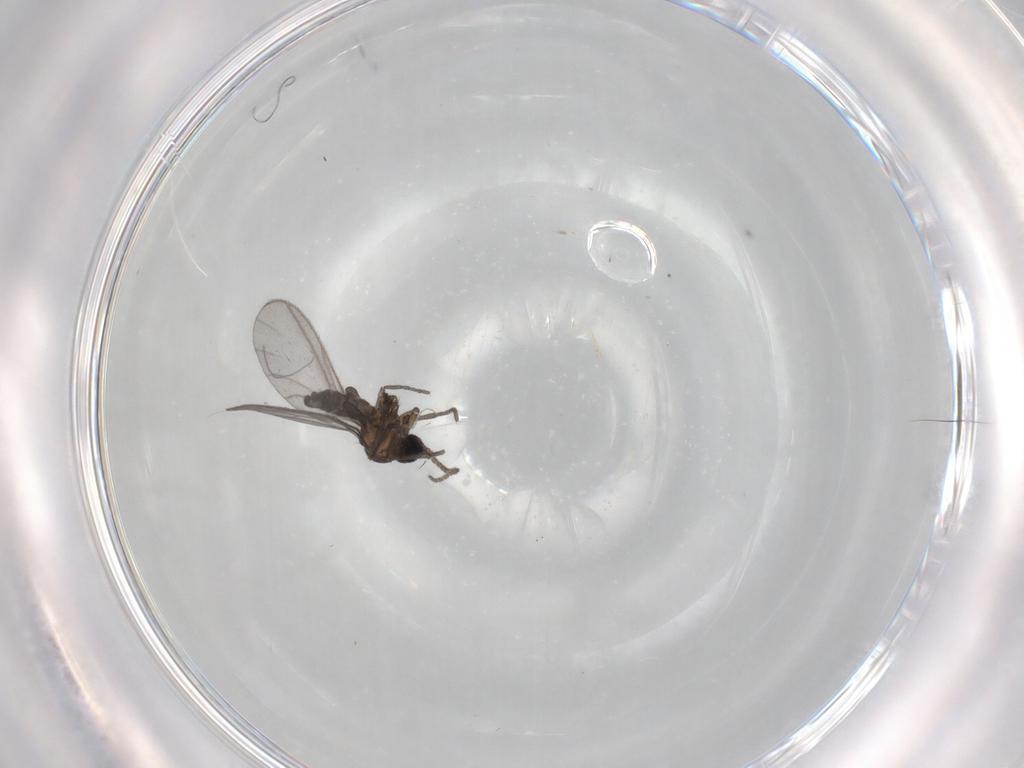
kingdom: Animalia
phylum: Arthropoda
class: Insecta
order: Diptera
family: Sciaridae
